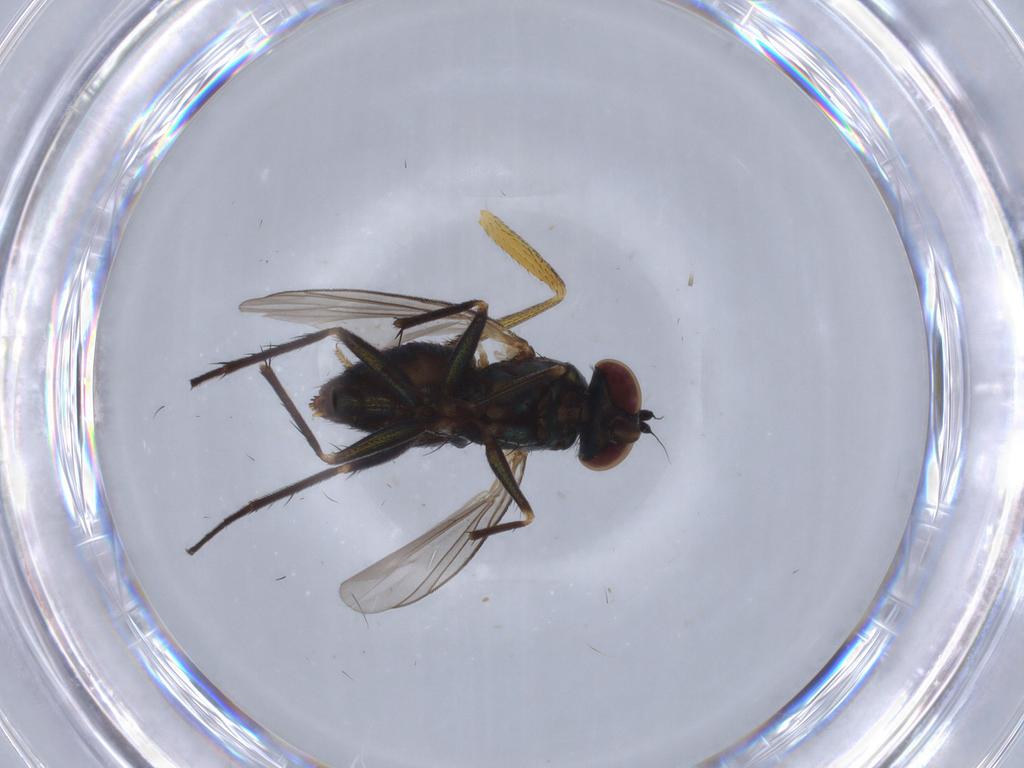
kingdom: Animalia
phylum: Arthropoda
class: Insecta
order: Diptera
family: Dolichopodidae
